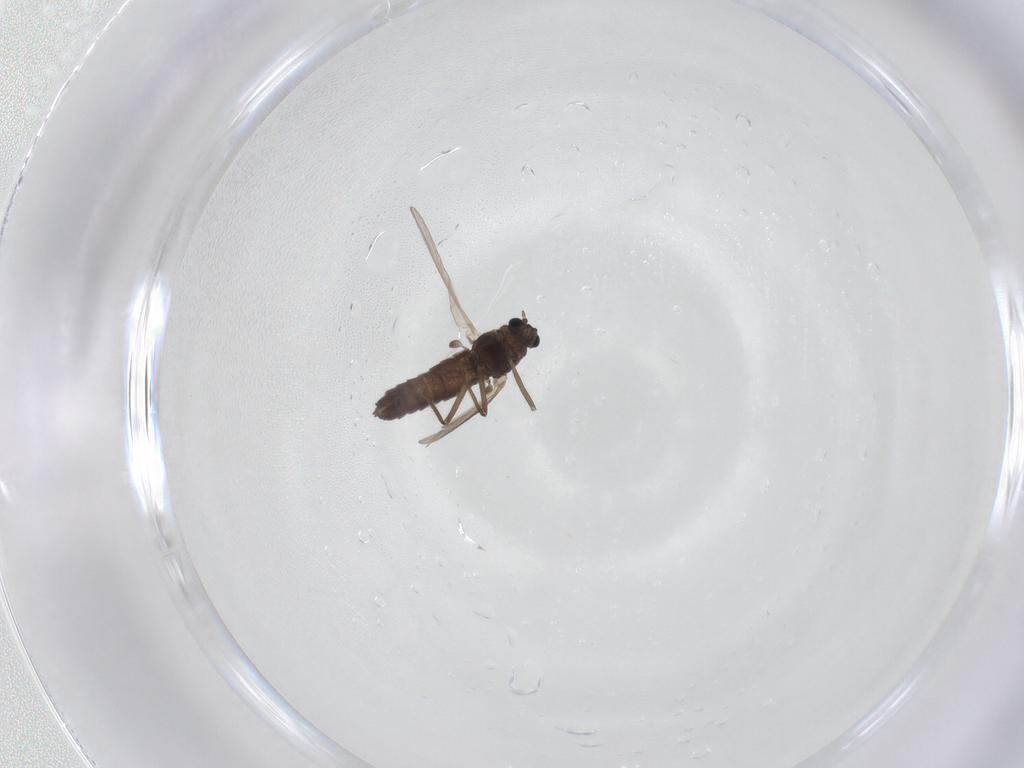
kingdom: Animalia
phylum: Arthropoda
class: Insecta
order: Diptera
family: Chironomidae
